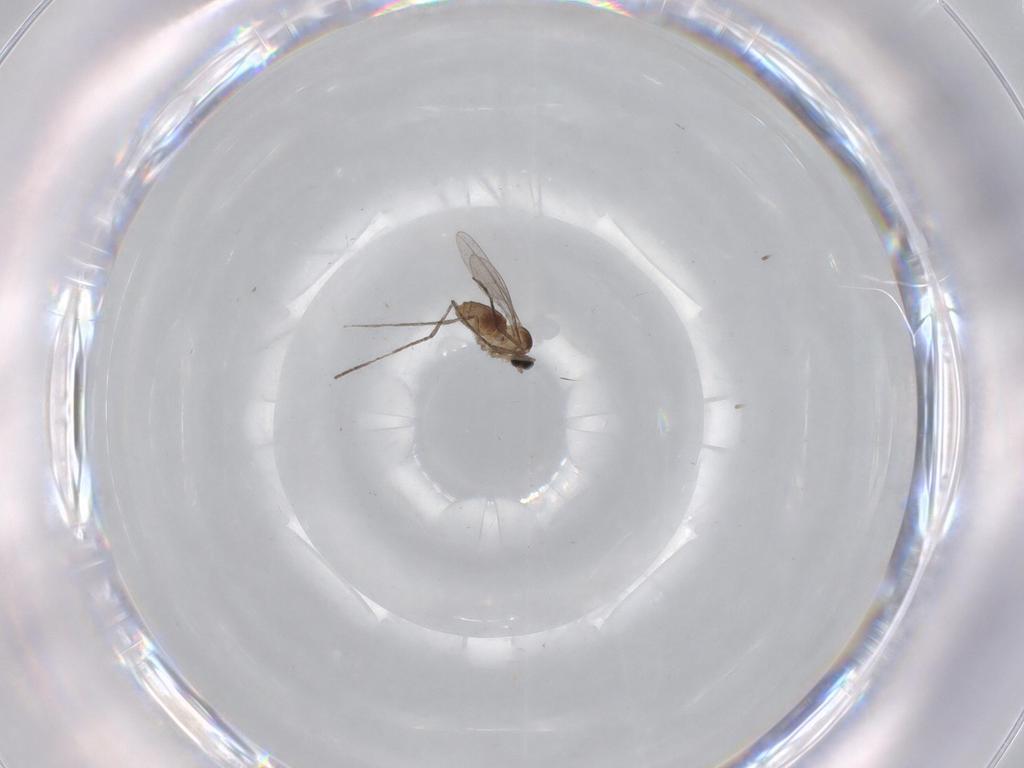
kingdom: Animalia
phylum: Arthropoda
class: Insecta
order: Diptera
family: Cecidomyiidae
